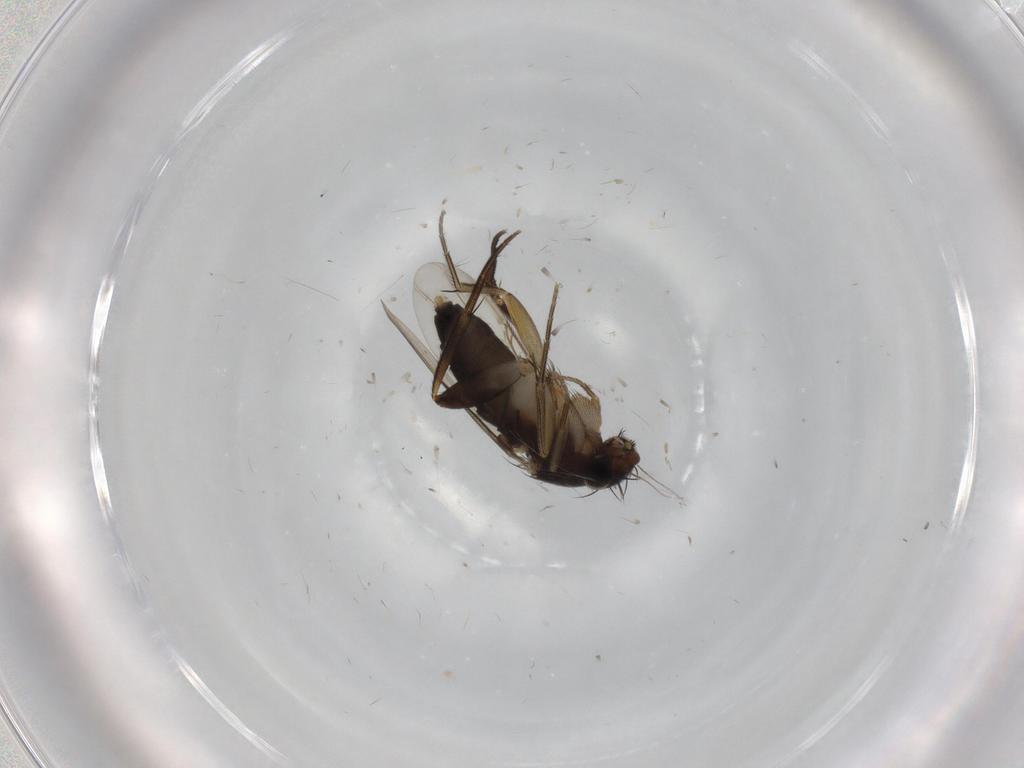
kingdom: Animalia
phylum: Arthropoda
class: Insecta
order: Diptera
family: Phoridae
